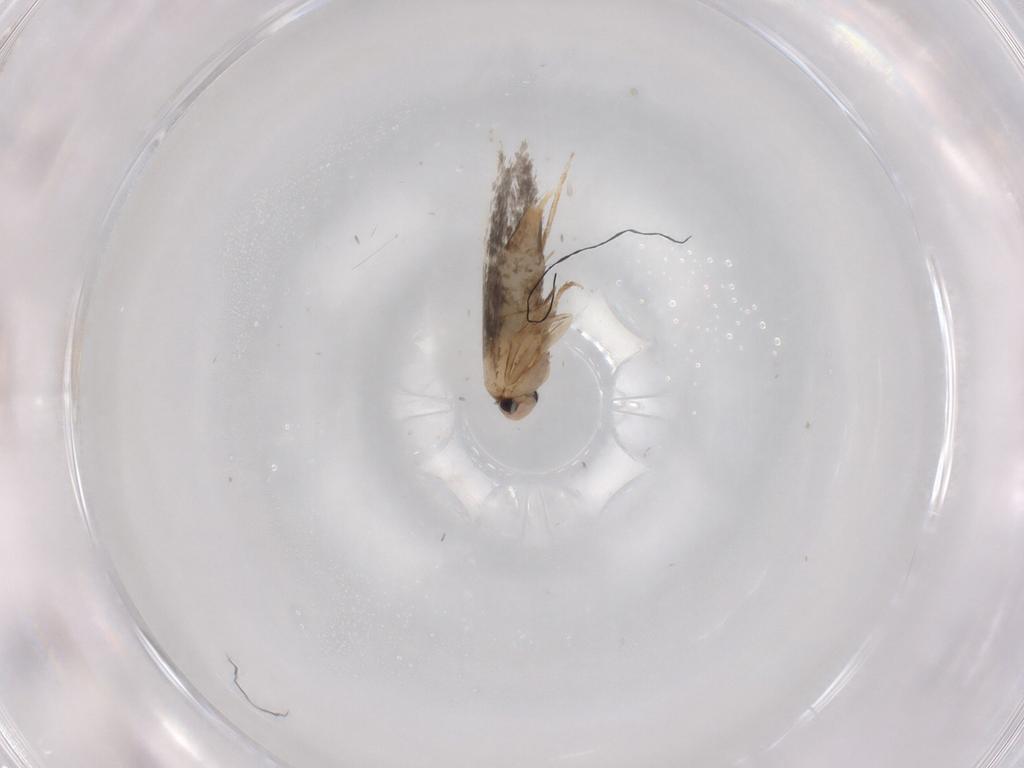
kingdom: Animalia
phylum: Arthropoda
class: Insecta
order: Lepidoptera
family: Tineidae
